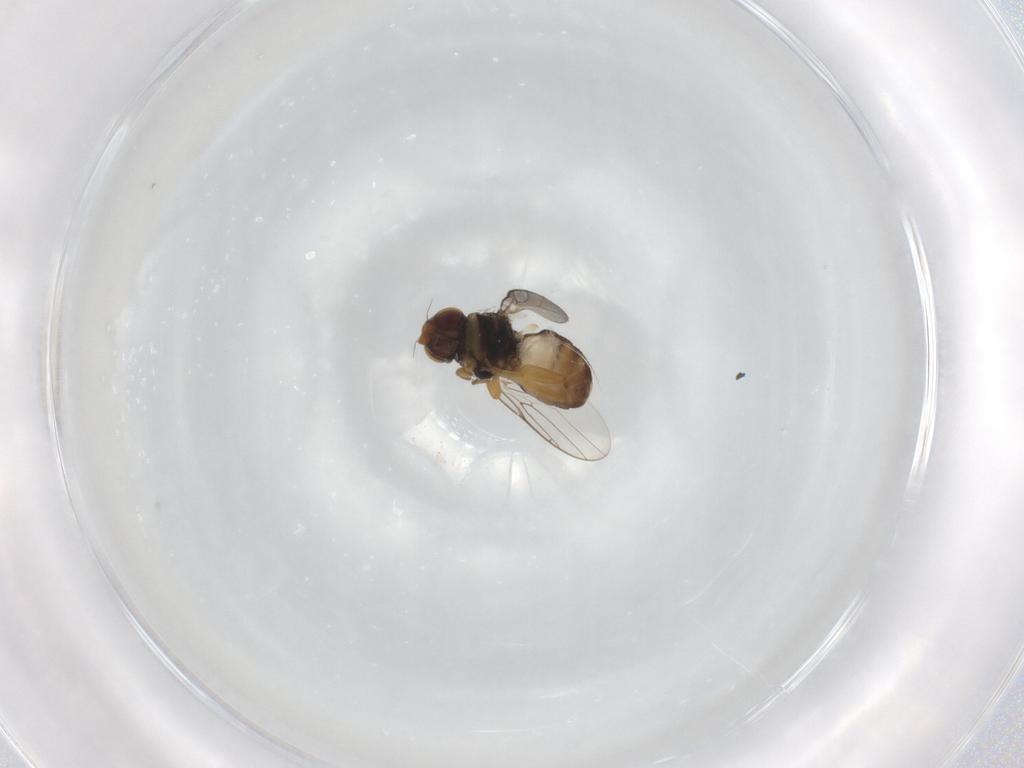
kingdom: Animalia
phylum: Arthropoda
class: Insecta
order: Diptera
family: Chloropidae
